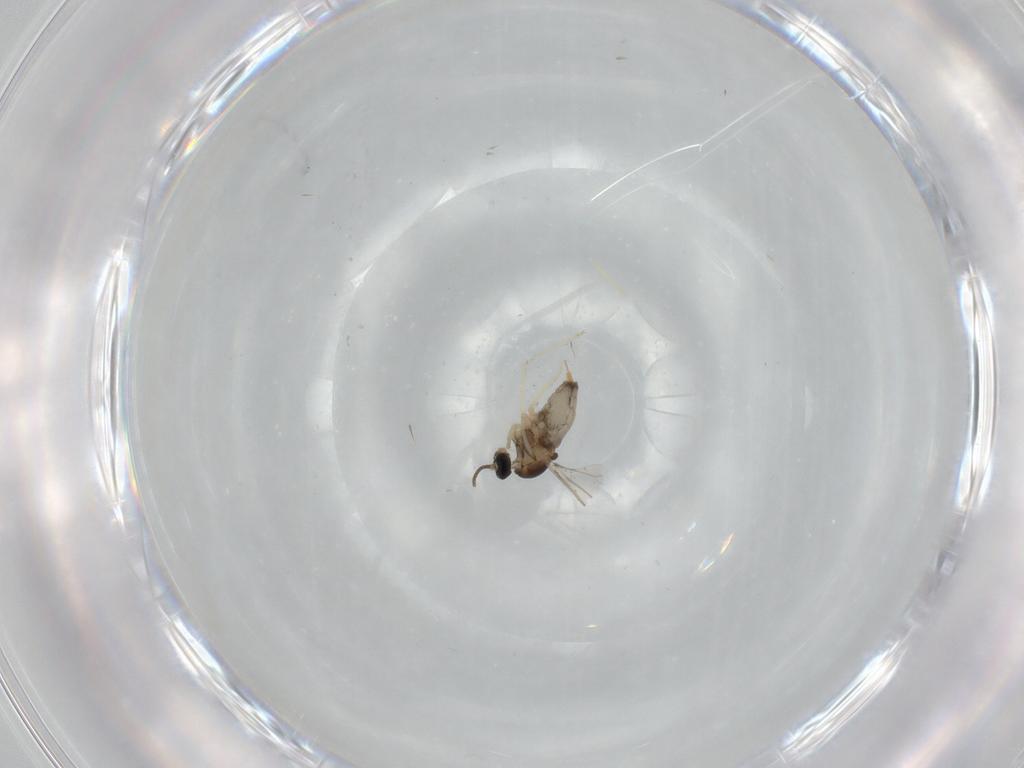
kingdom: Animalia
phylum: Arthropoda
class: Insecta
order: Diptera
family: Cecidomyiidae
